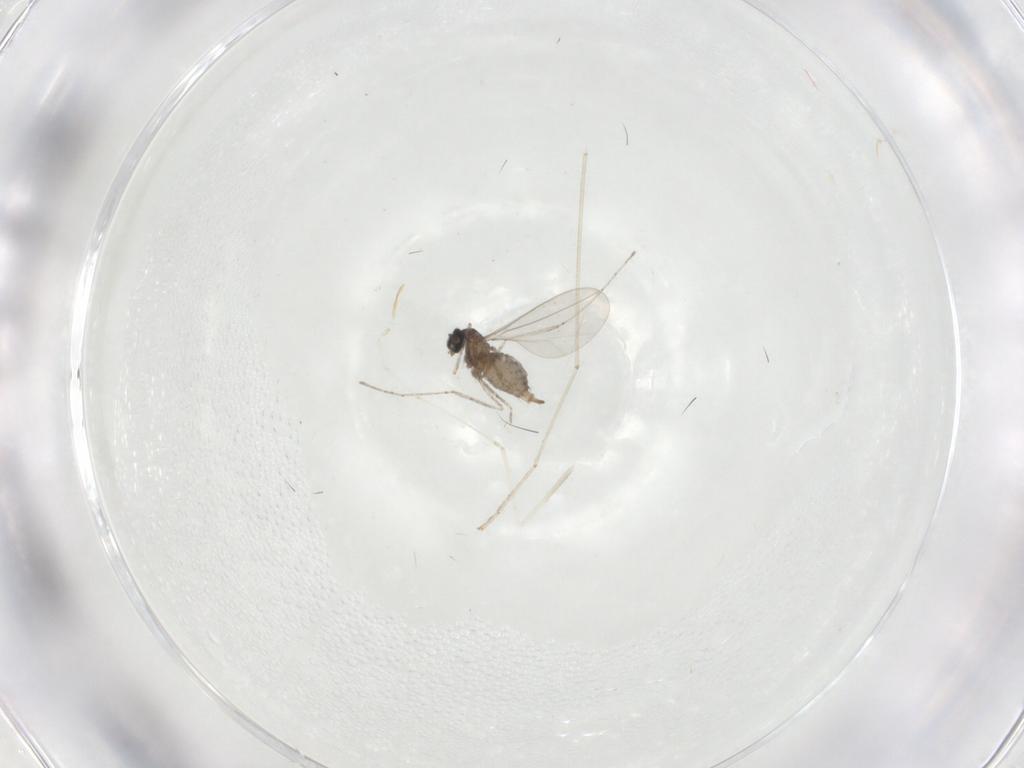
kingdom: Animalia
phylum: Arthropoda
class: Insecta
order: Diptera
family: Cecidomyiidae
